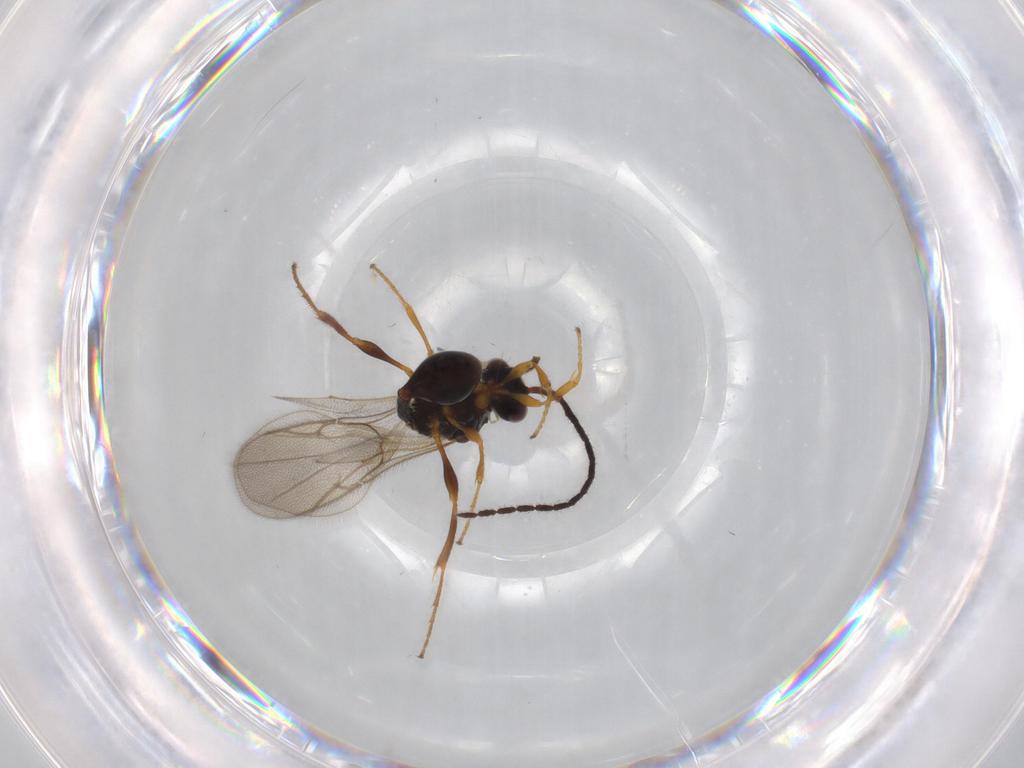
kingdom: Animalia
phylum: Arthropoda
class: Insecta
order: Hymenoptera
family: Diapriidae
